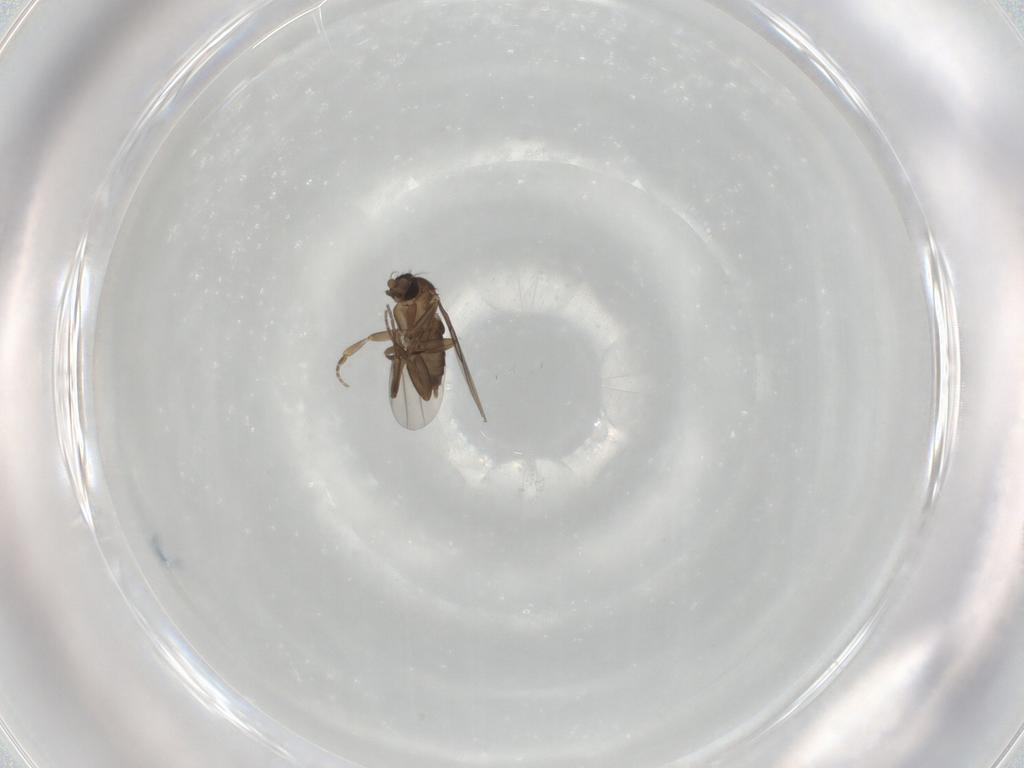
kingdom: Animalia
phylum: Arthropoda
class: Insecta
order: Diptera
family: Phoridae
